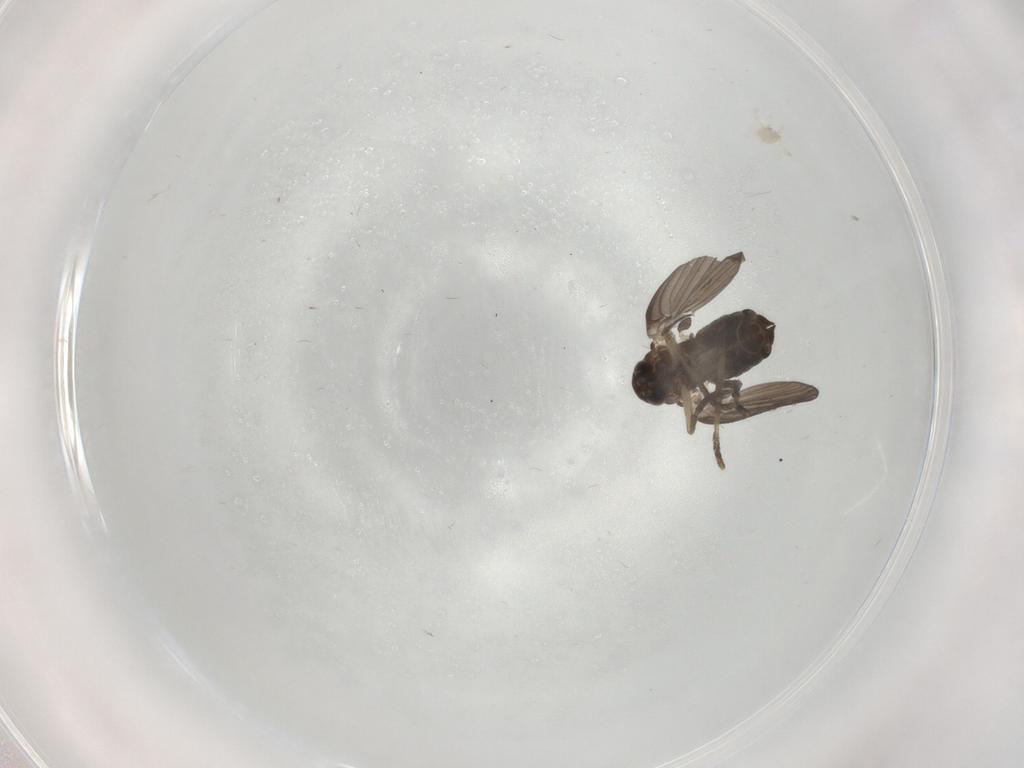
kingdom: Animalia
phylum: Arthropoda
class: Insecta
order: Diptera
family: Psychodidae
